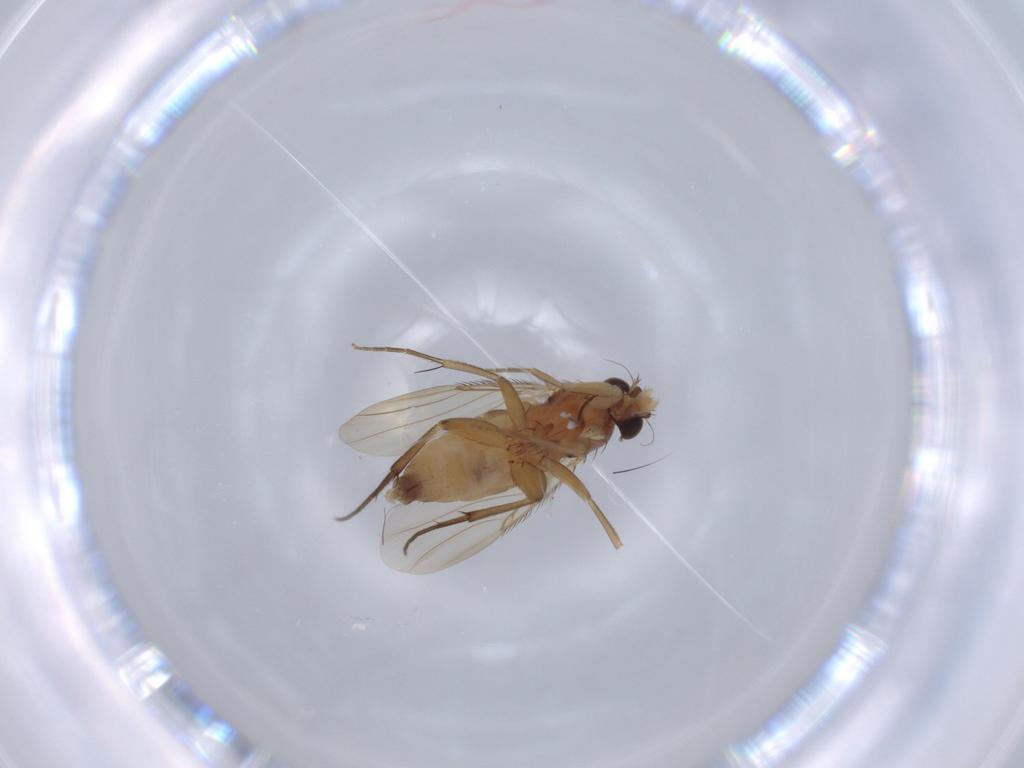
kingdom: Animalia
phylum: Arthropoda
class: Insecta
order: Diptera
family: Phoridae
